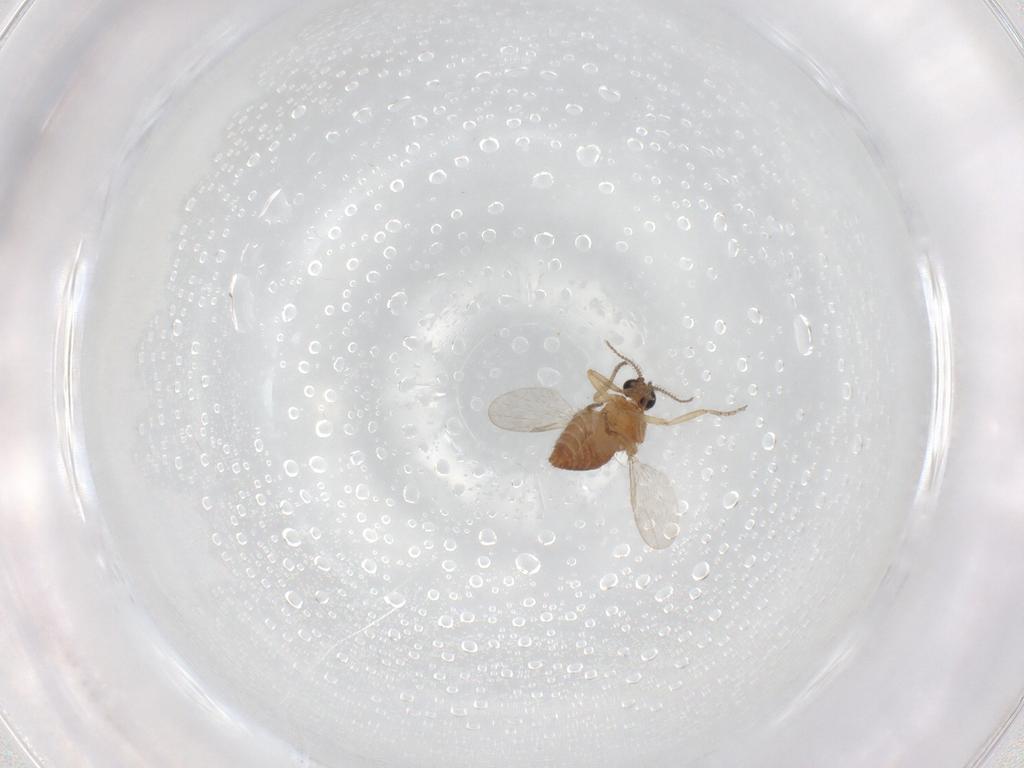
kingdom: Animalia
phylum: Arthropoda
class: Insecta
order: Diptera
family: Ceratopogonidae
